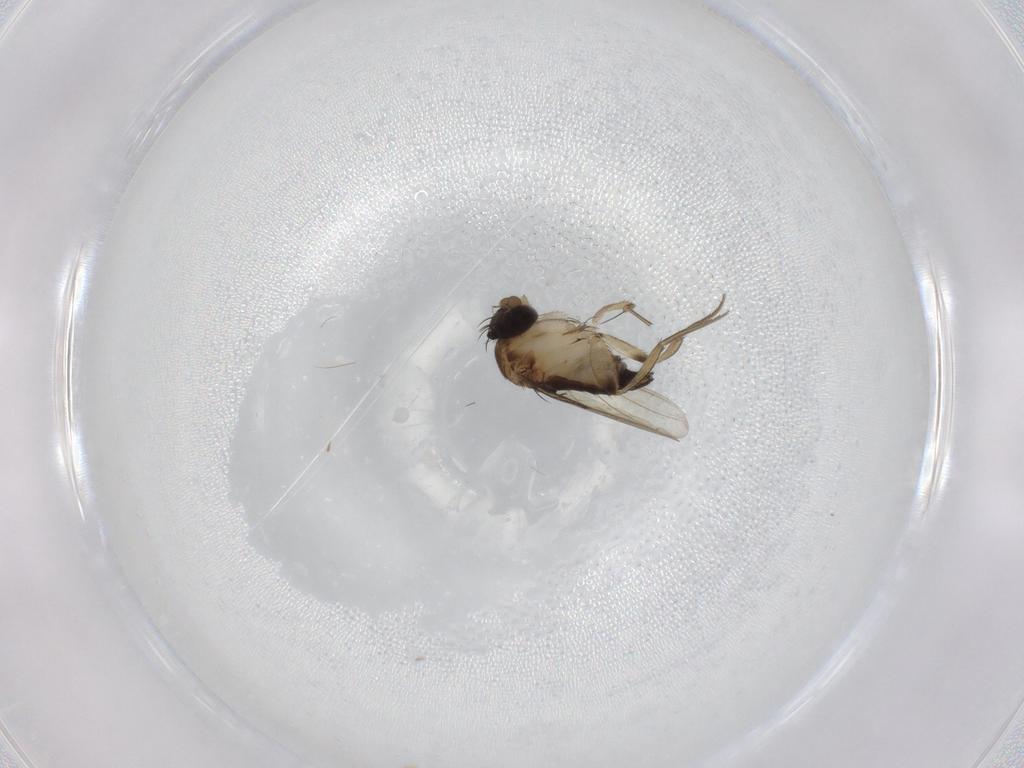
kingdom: Animalia
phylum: Arthropoda
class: Insecta
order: Diptera
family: Phoridae
